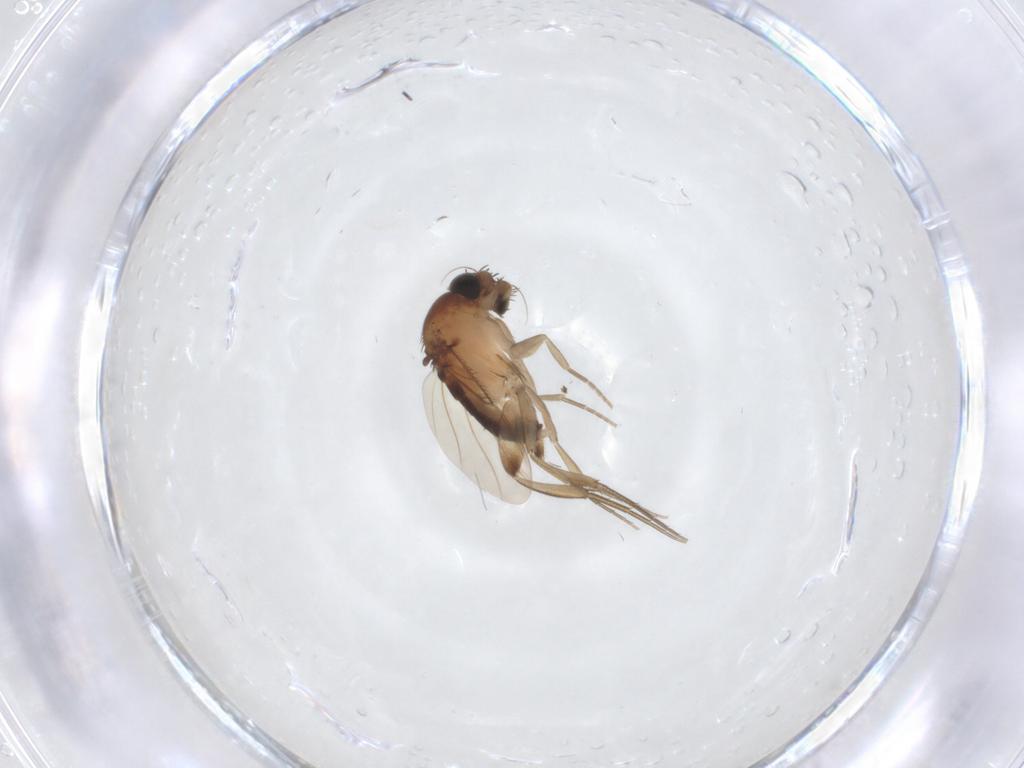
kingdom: Animalia
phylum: Arthropoda
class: Insecta
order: Diptera
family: Phoridae
